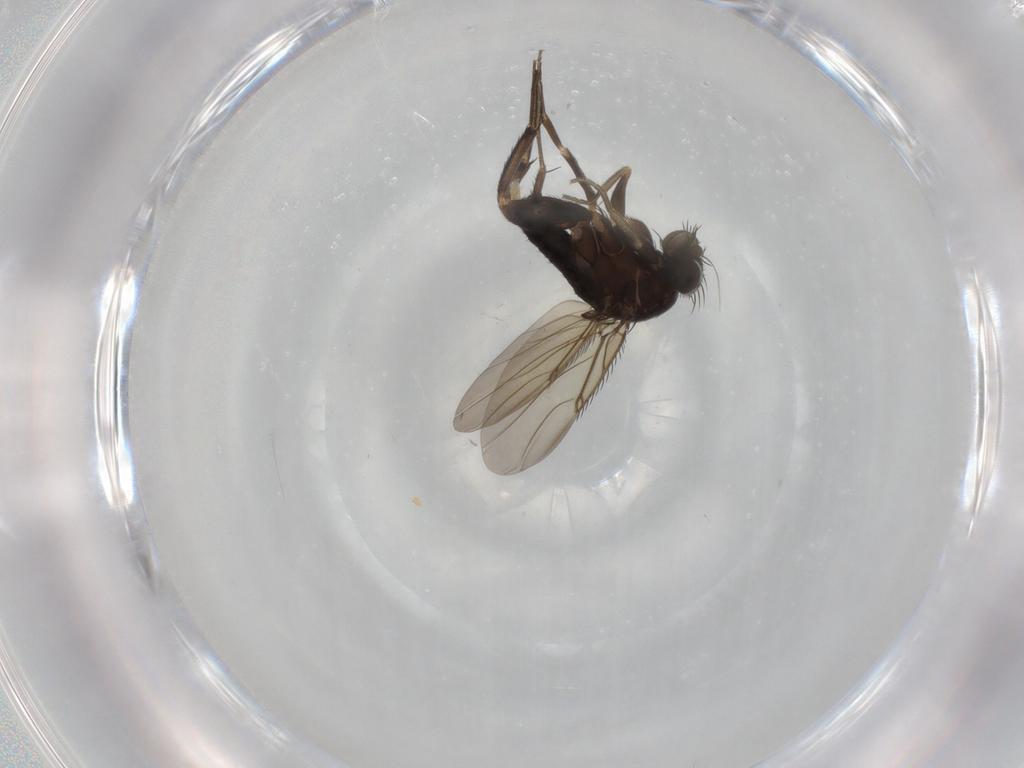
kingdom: Animalia
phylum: Arthropoda
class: Insecta
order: Diptera
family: Phoridae
